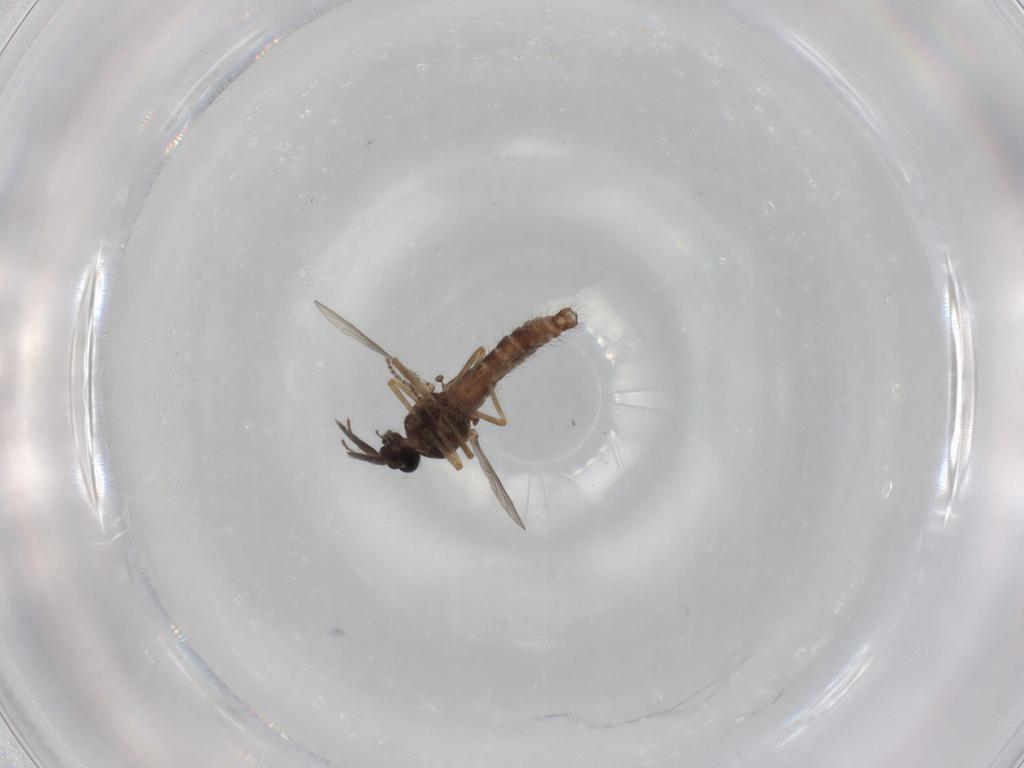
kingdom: Animalia
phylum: Arthropoda
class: Insecta
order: Diptera
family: Ceratopogonidae
